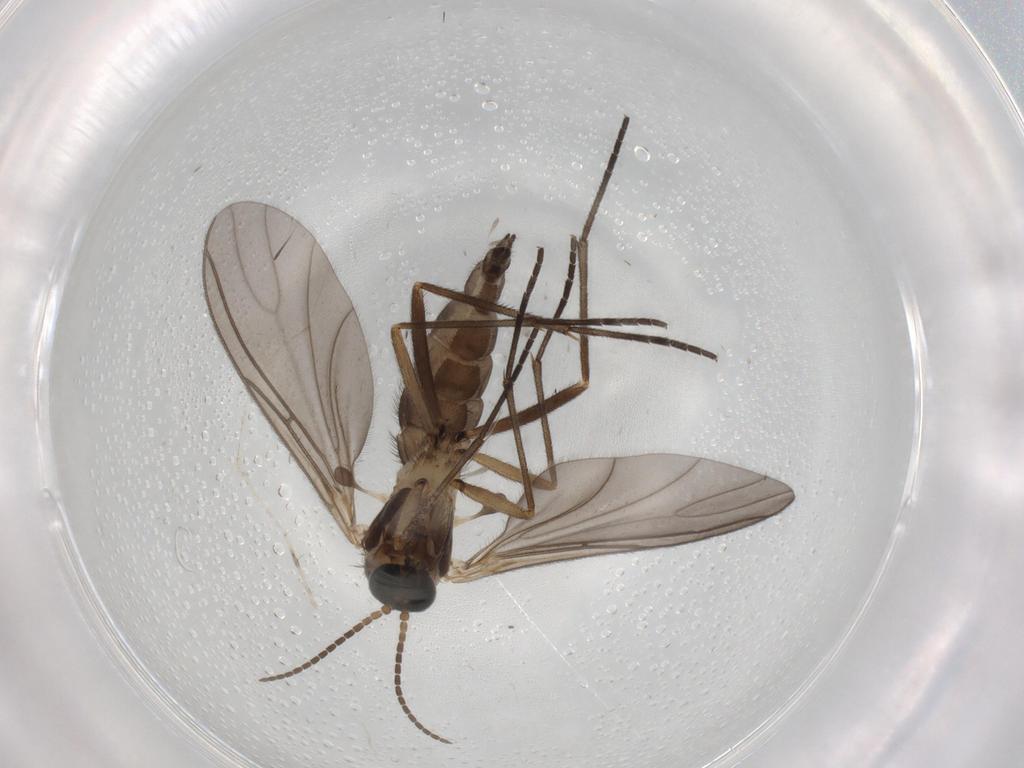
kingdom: Animalia
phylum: Arthropoda
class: Insecta
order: Diptera
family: Sciaridae
